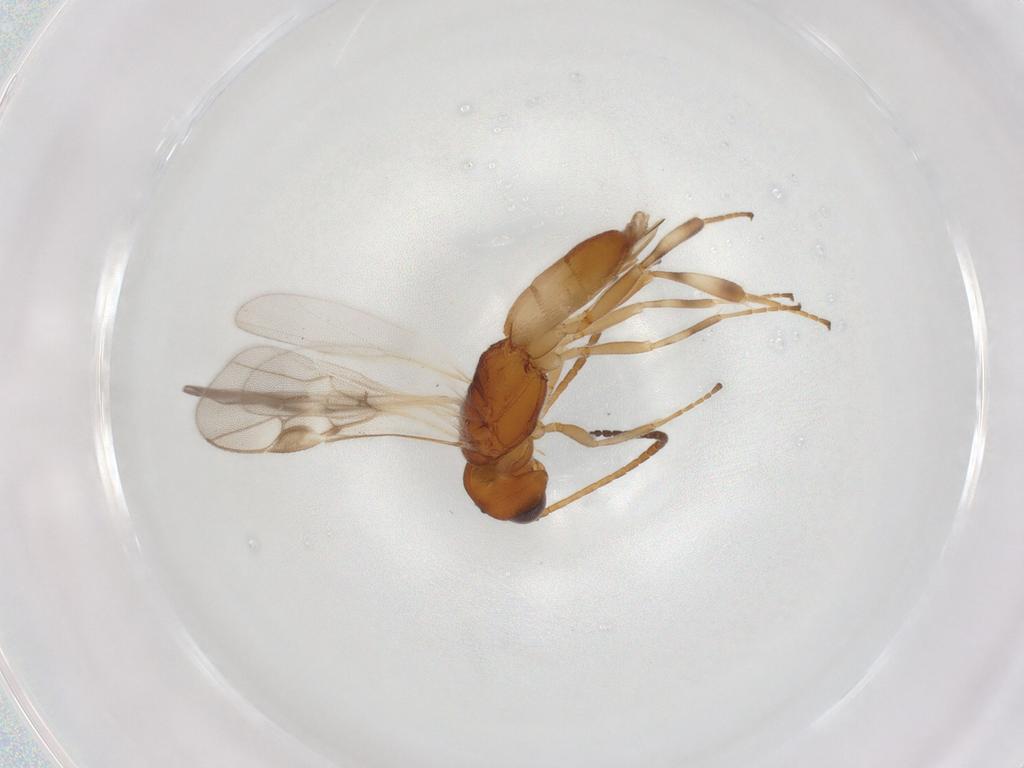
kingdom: Animalia
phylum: Arthropoda
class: Insecta
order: Hymenoptera
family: Braconidae
